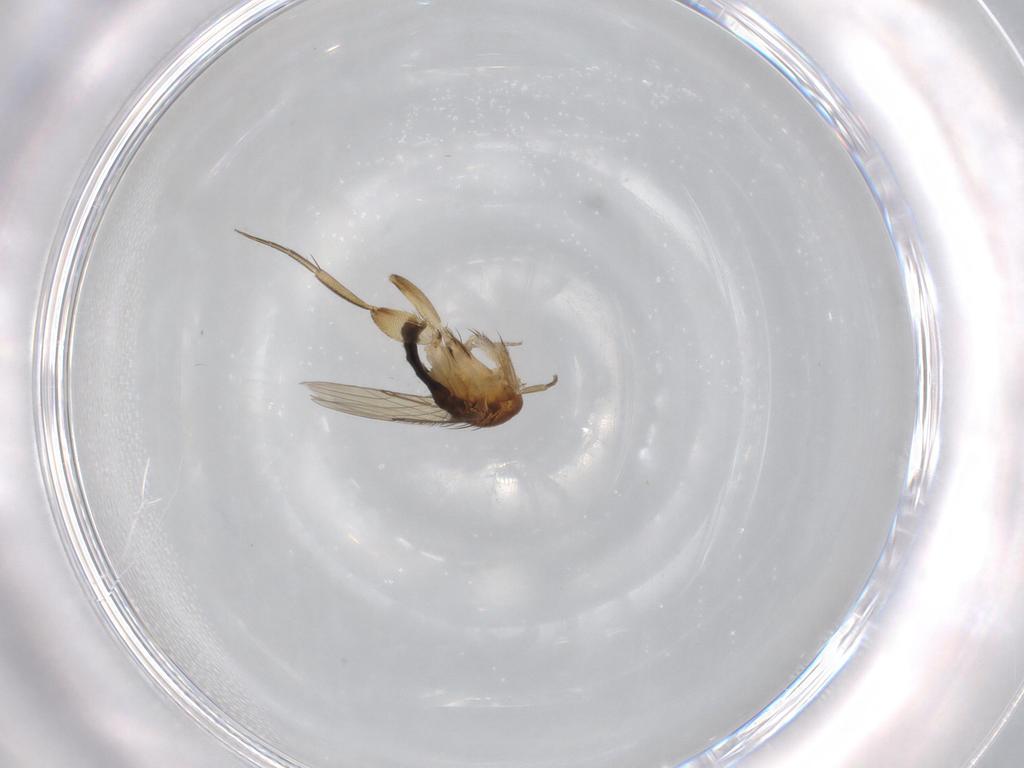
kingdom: Animalia
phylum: Arthropoda
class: Insecta
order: Diptera
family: Phoridae
